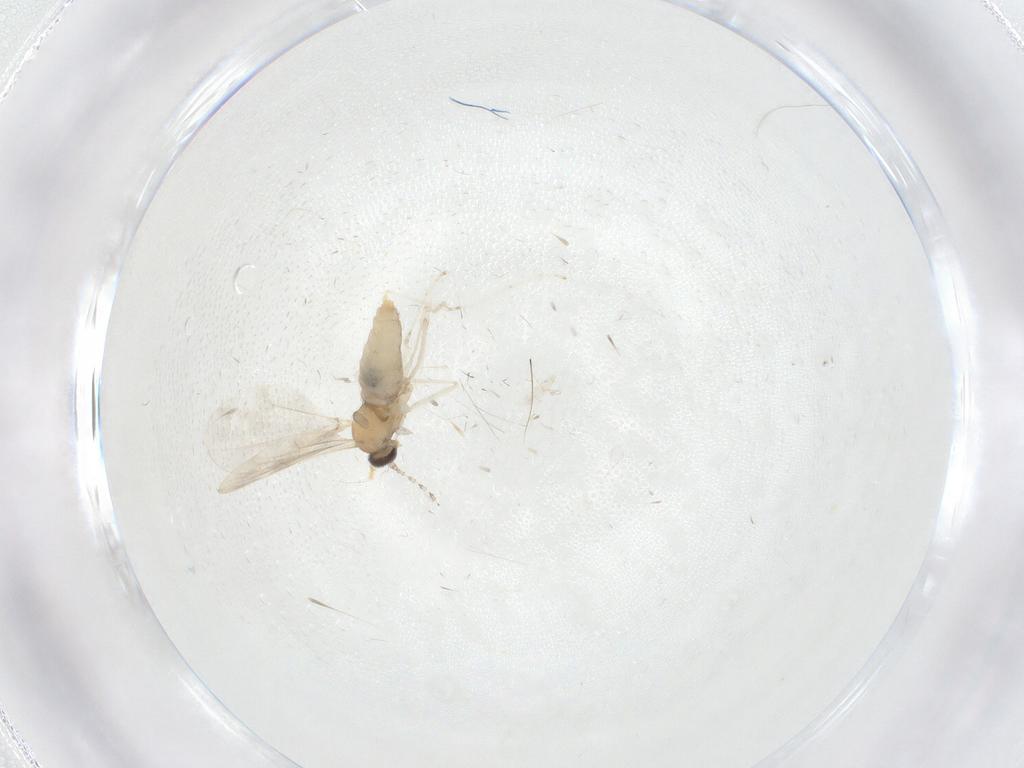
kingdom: Animalia
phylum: Arthropoda
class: Insecta
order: Diptera
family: Cecidomyiidae
